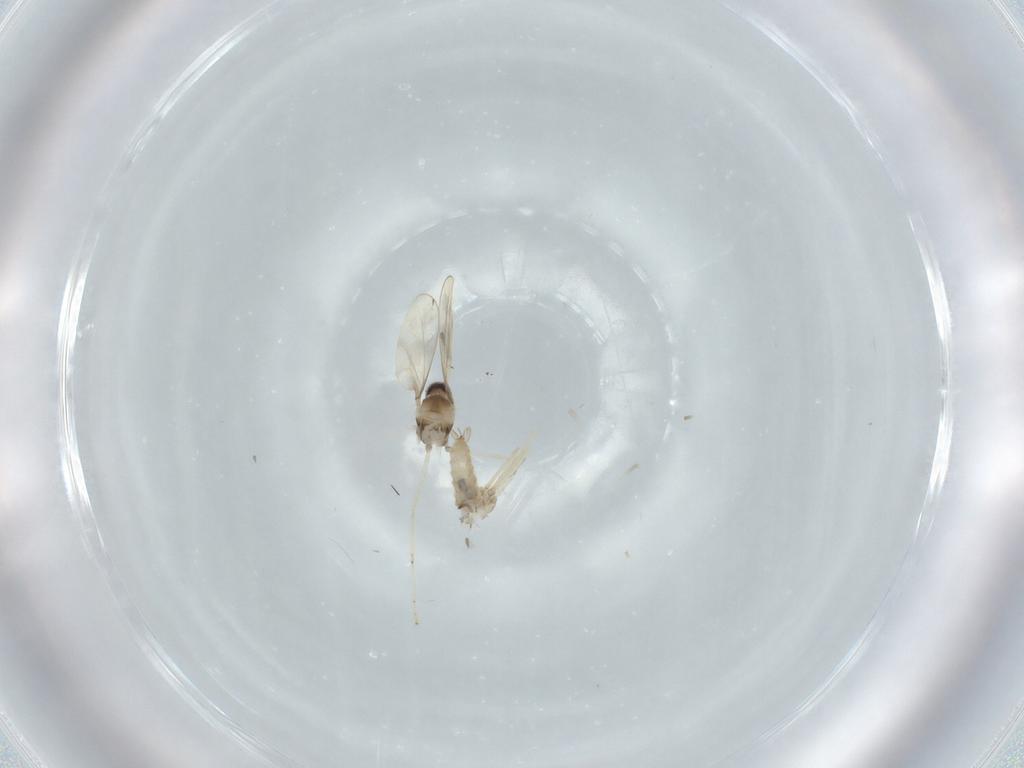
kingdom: Animalia
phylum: Arthropoda
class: Insecta
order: Diptera
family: Cecidomyiidae
